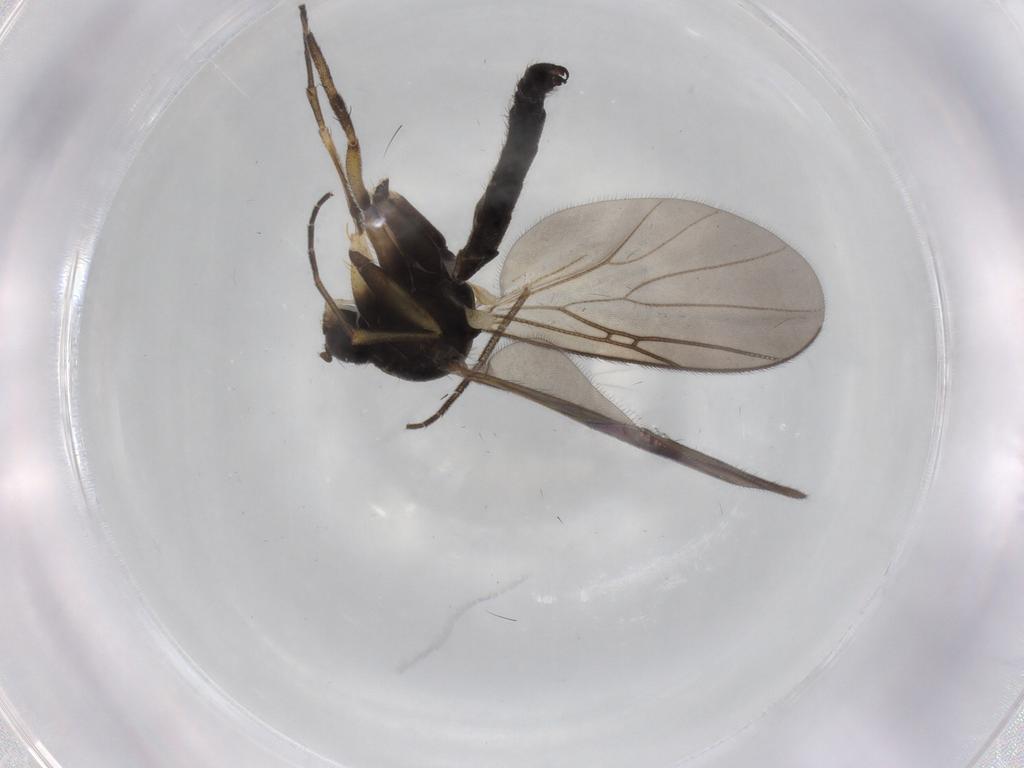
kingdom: Animalia
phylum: Arthropoda
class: Insecta
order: Diptera
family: Mycetophilidae
